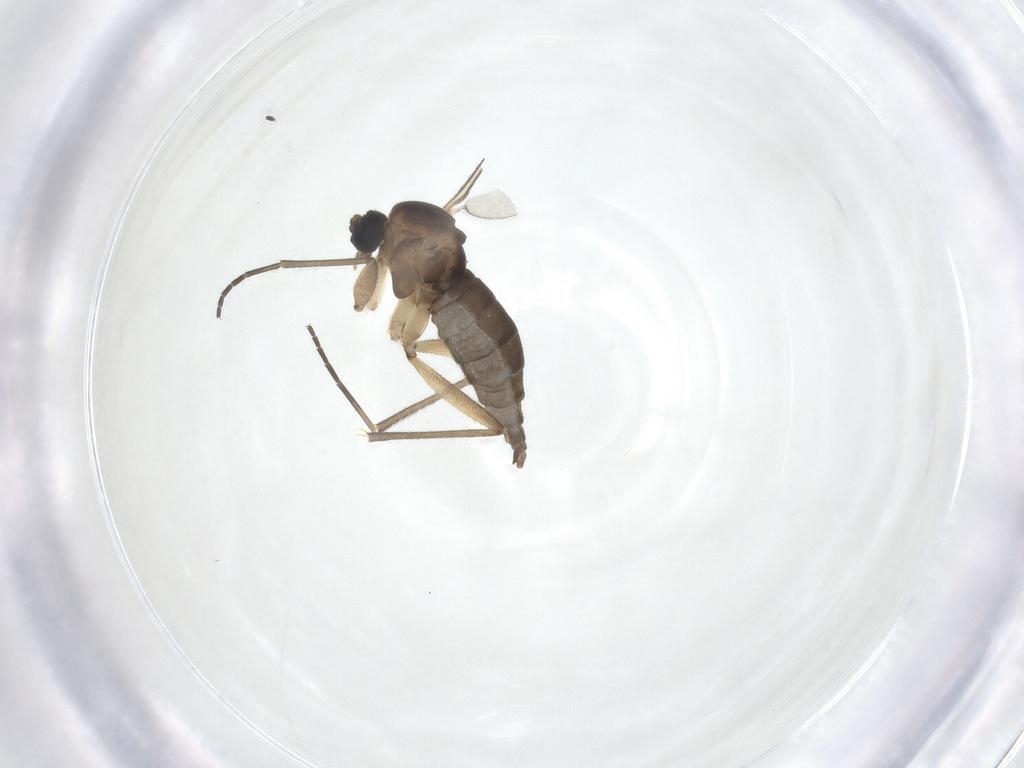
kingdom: Animalia
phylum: Arthropoda
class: Insecta
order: Diptera
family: Sciaridae
